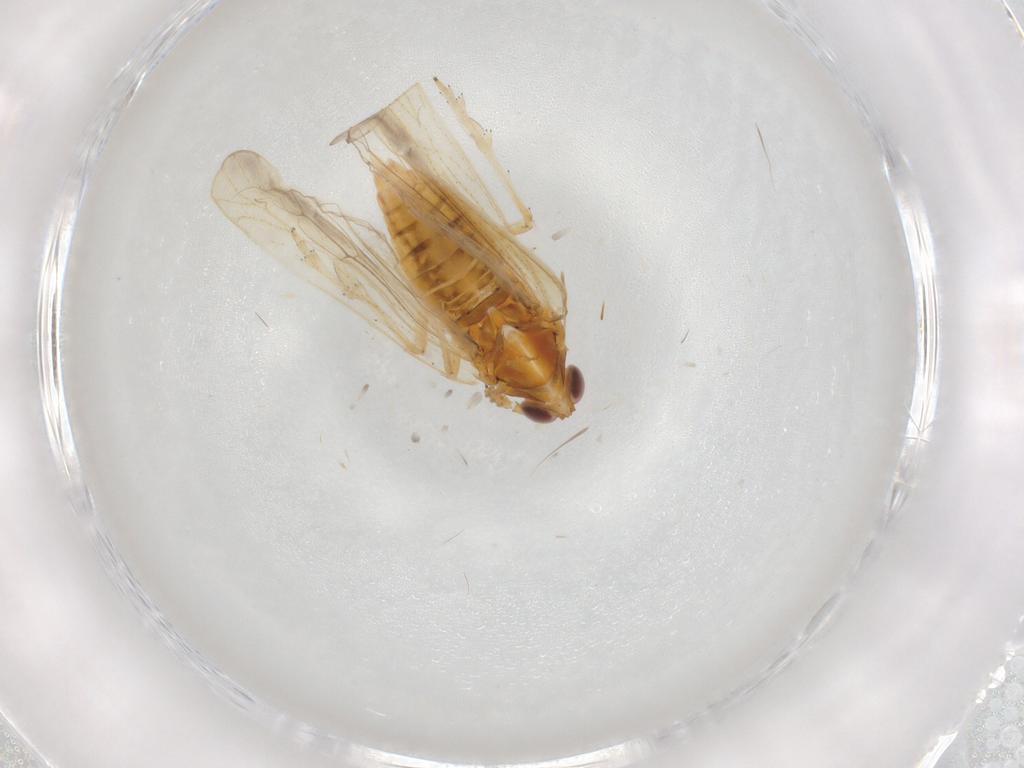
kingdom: Animalia
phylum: Arthropoda
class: Insecta
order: Hemiptera
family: Delphacidae
